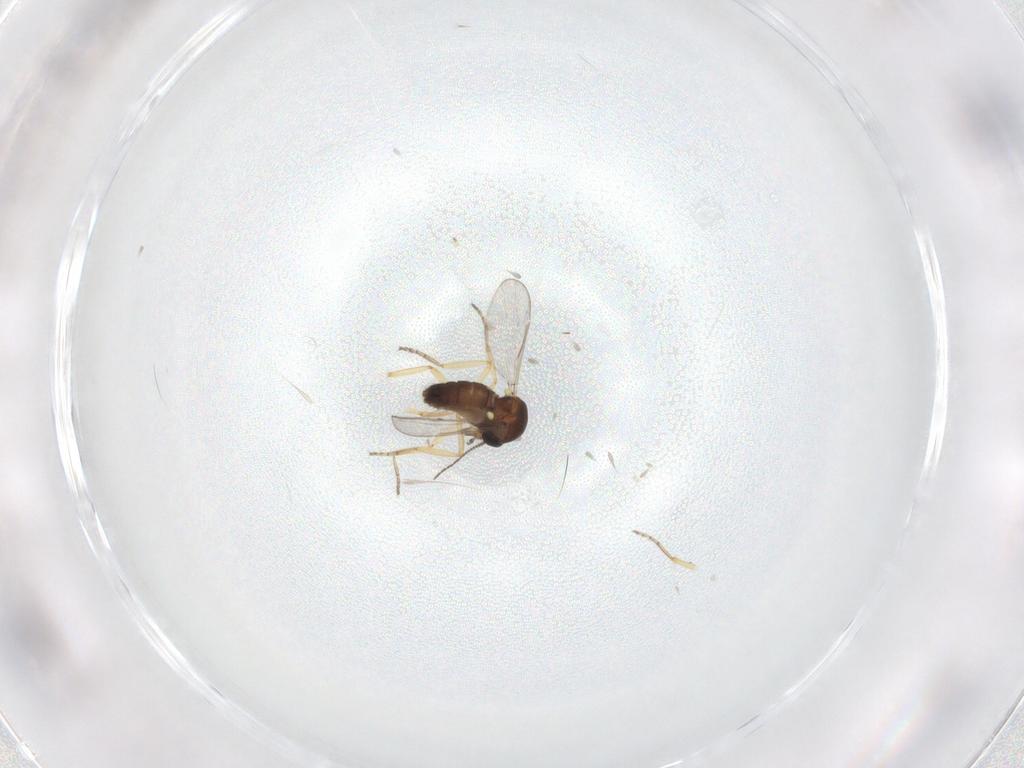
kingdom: Animalia
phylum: Arthropoda
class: Insecta
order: Diptera
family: Ceratopogonidae
